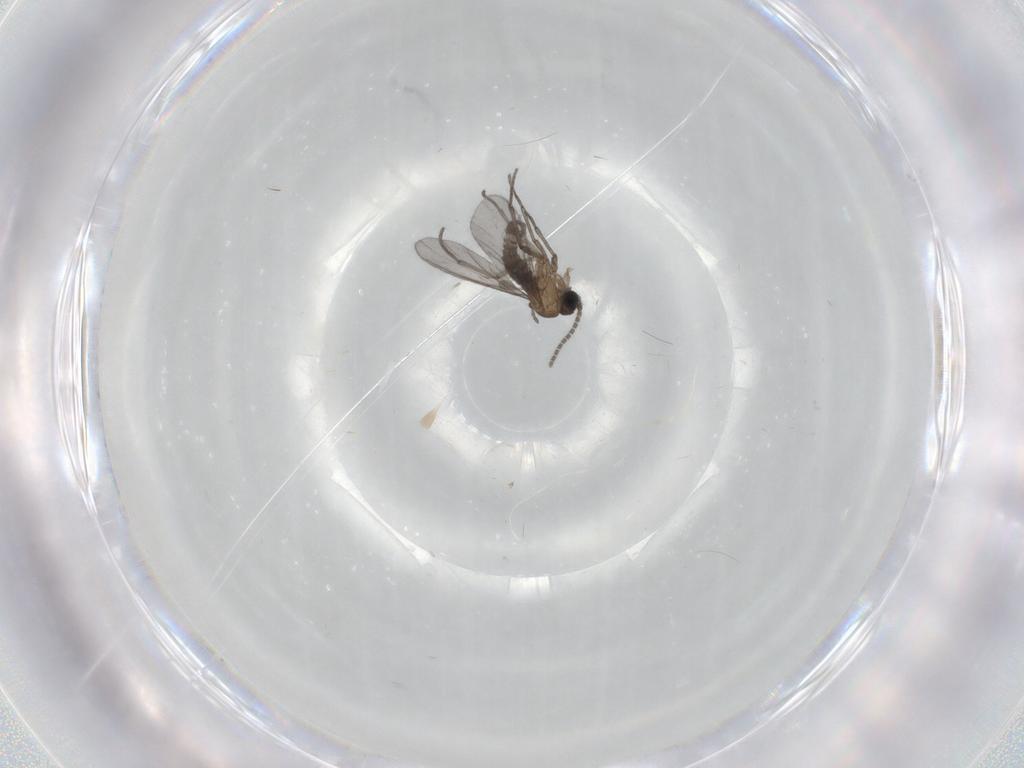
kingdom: Animalia
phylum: Arthropoda
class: Insecta
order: Diptera
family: Sciaridae
